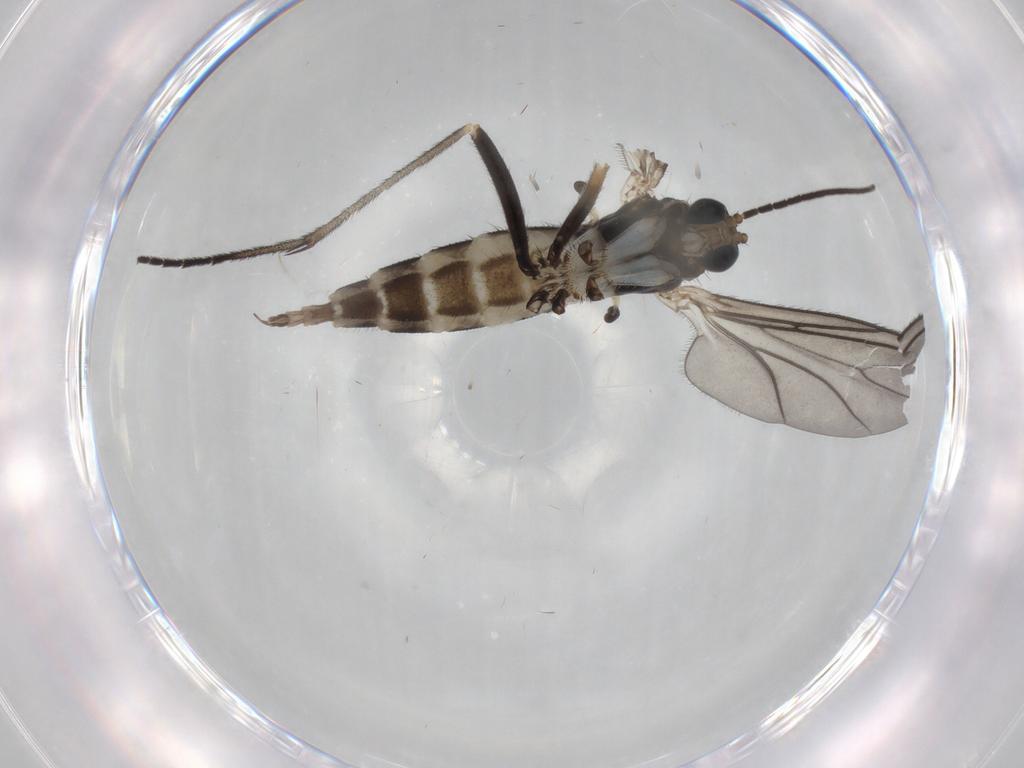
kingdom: Animalia
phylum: Arthropoda
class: Insecta
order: Diptera
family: Sciaridae
